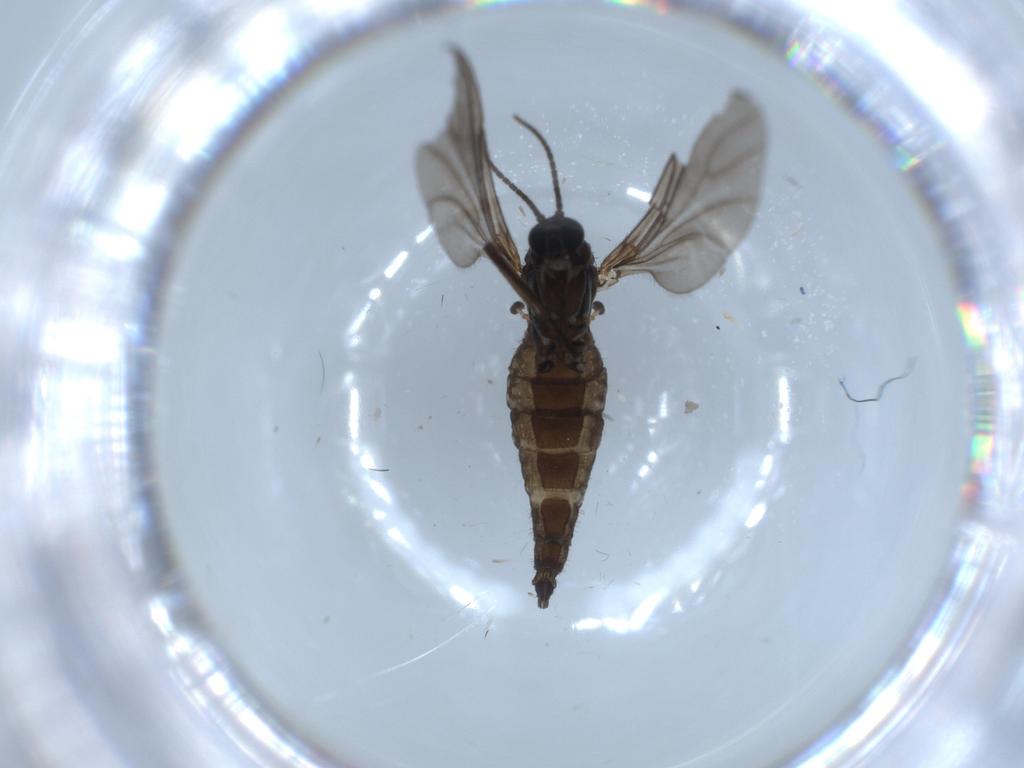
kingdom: Animalia
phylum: Arthropoda
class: Insecta
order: Diptera
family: Sciaridae
